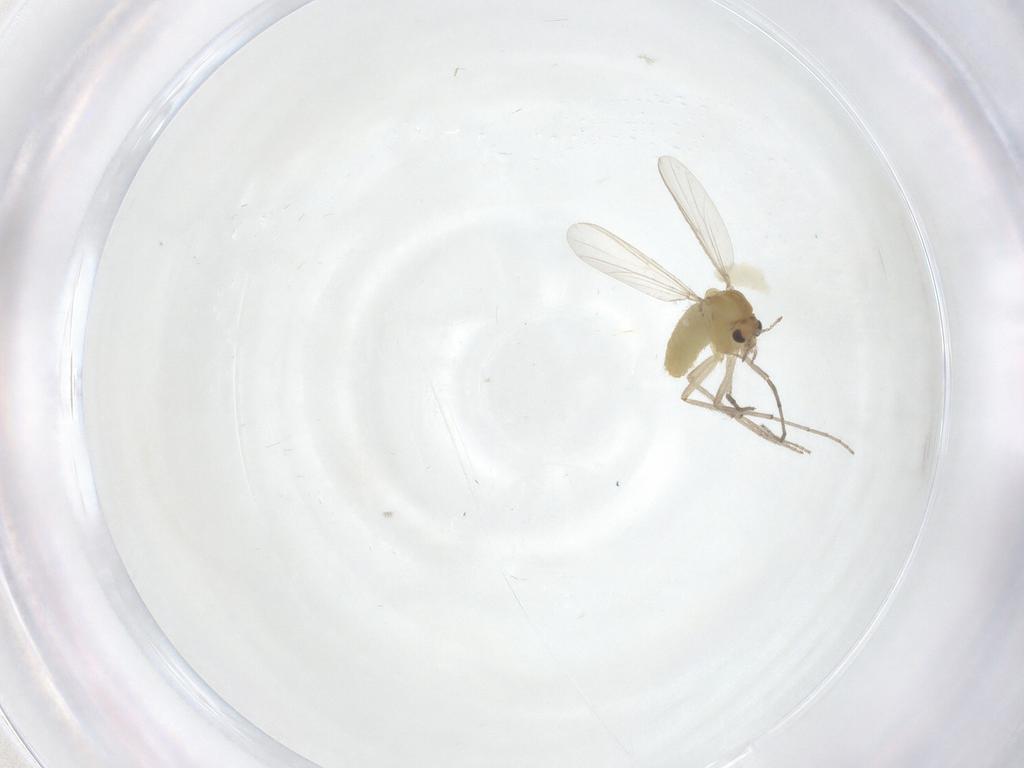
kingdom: Animalia
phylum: Arthropoda
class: Insecta
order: Diptera
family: Chironomidae
